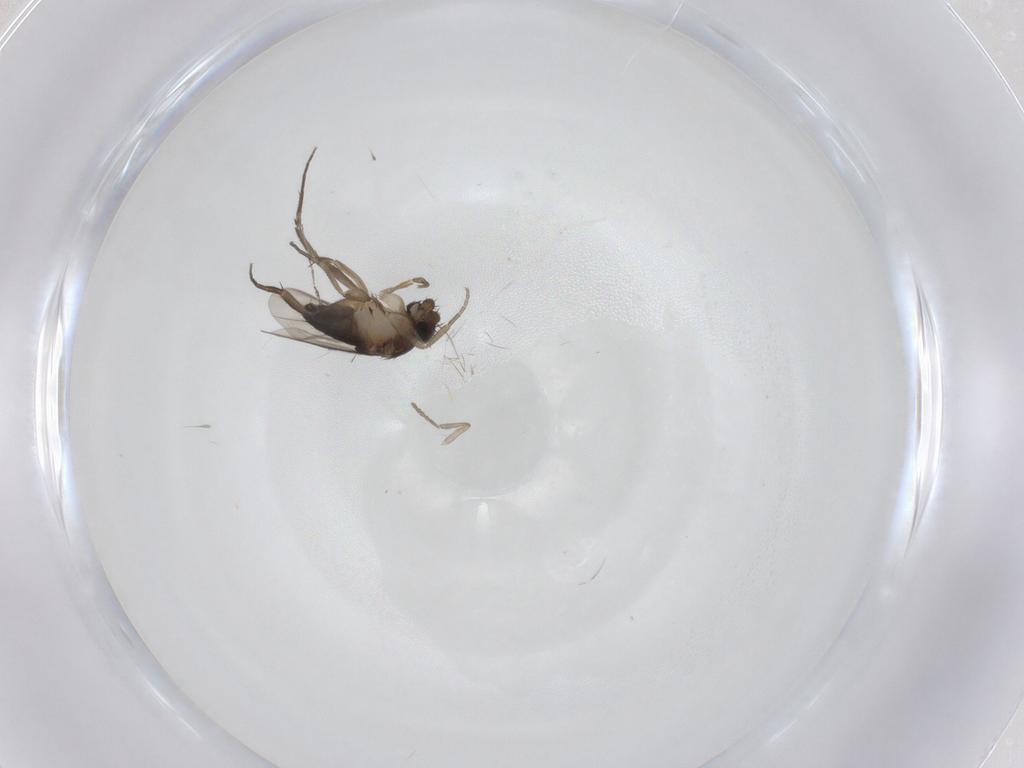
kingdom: Animalia
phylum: Arthropoda
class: Insecta
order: Diptera
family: Phoridae
